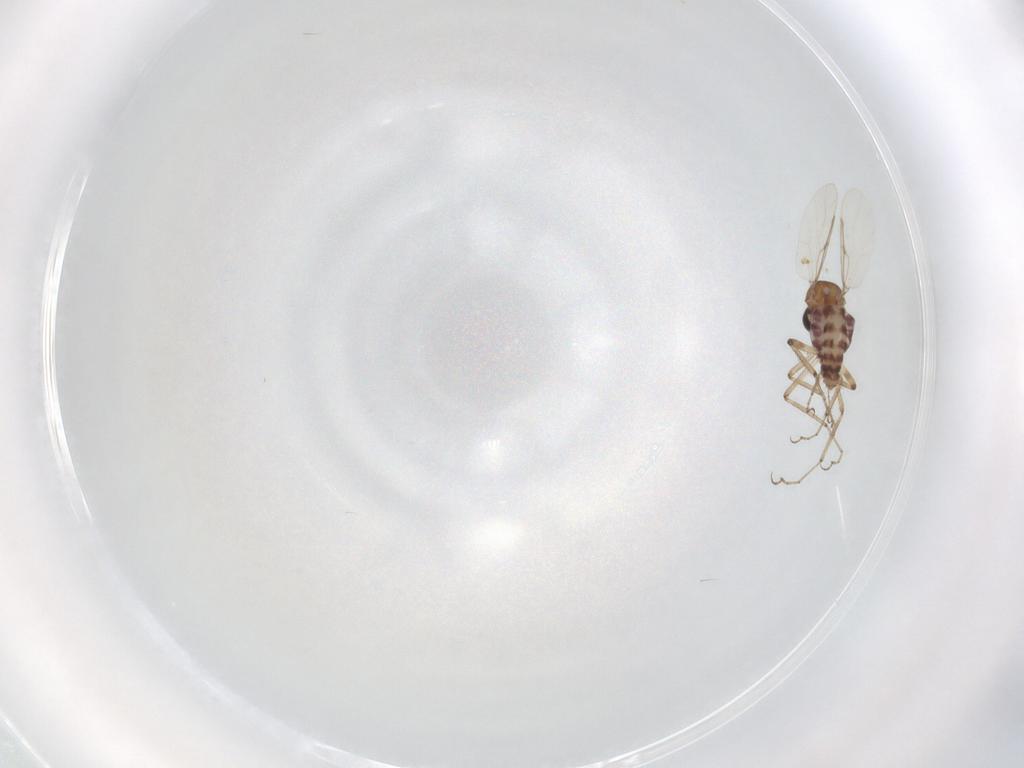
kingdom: Animalia
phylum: Arthropoda
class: Insecta
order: Diptera
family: Ceratopogonidae
